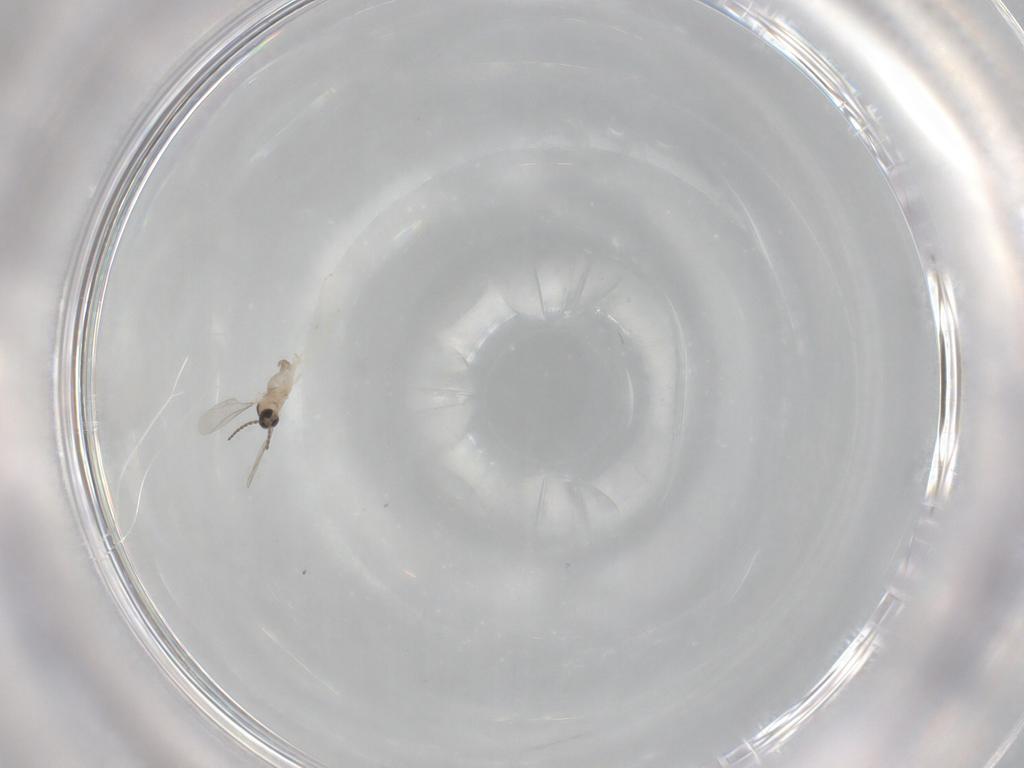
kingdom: Animalia
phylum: Arthropoda
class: Insecta
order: Diptera
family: Cecidomyiidae
